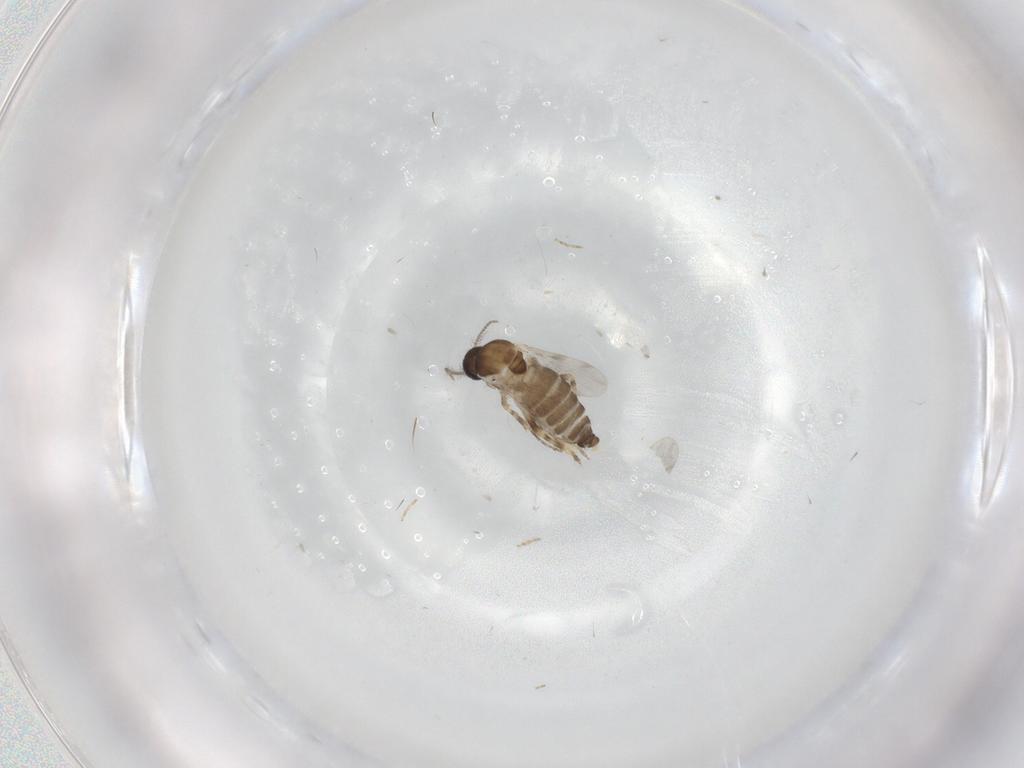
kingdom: Animalia
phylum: Arthropoda
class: Insecta
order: Diptera
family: Ceratopogonidae
